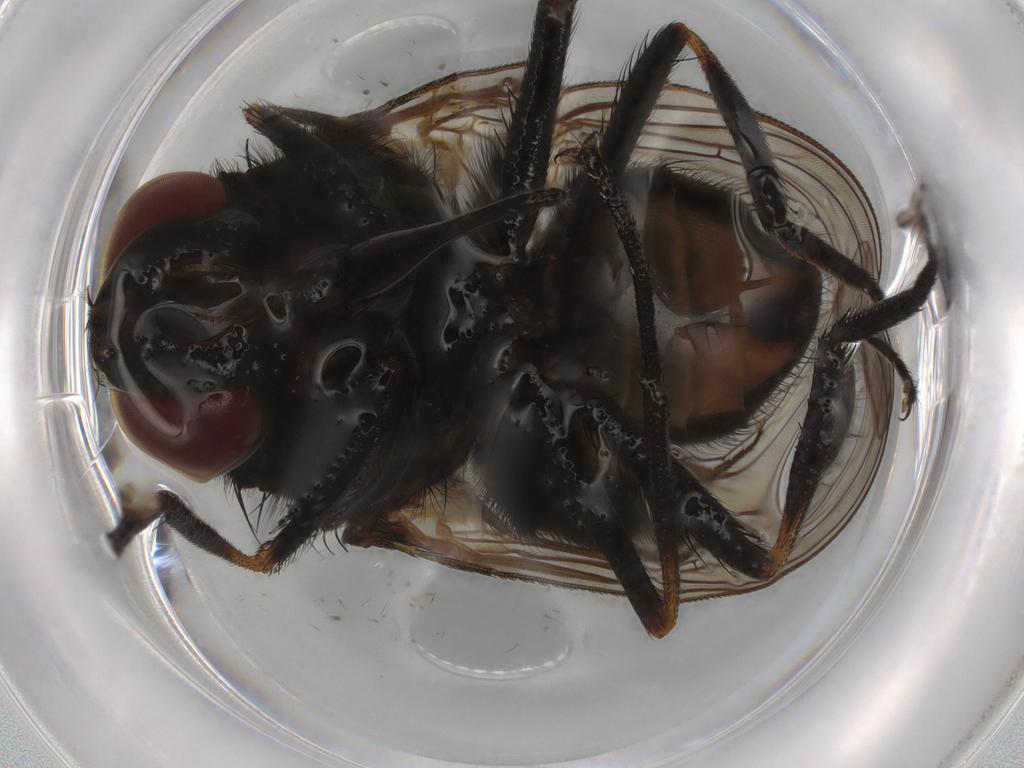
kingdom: Animalia
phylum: Arthropoda
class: Insecta
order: Diptera
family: Muscidae
